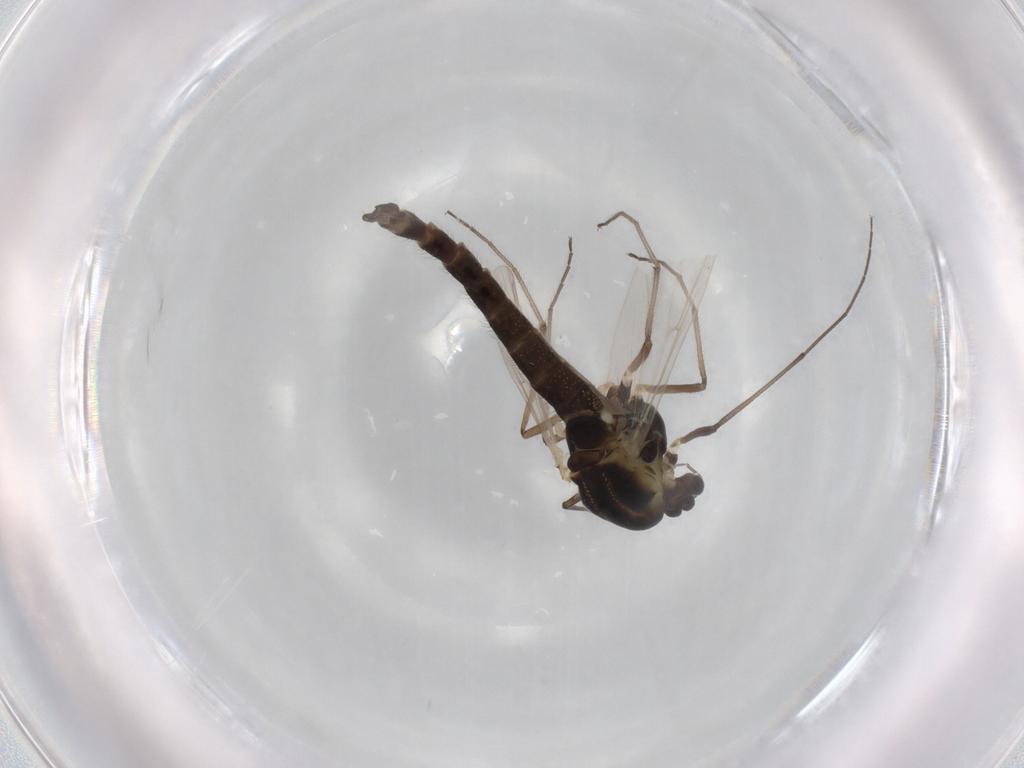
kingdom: Animalia
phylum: Arthropoda
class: Insecta
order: Diptera
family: Chironomidae
